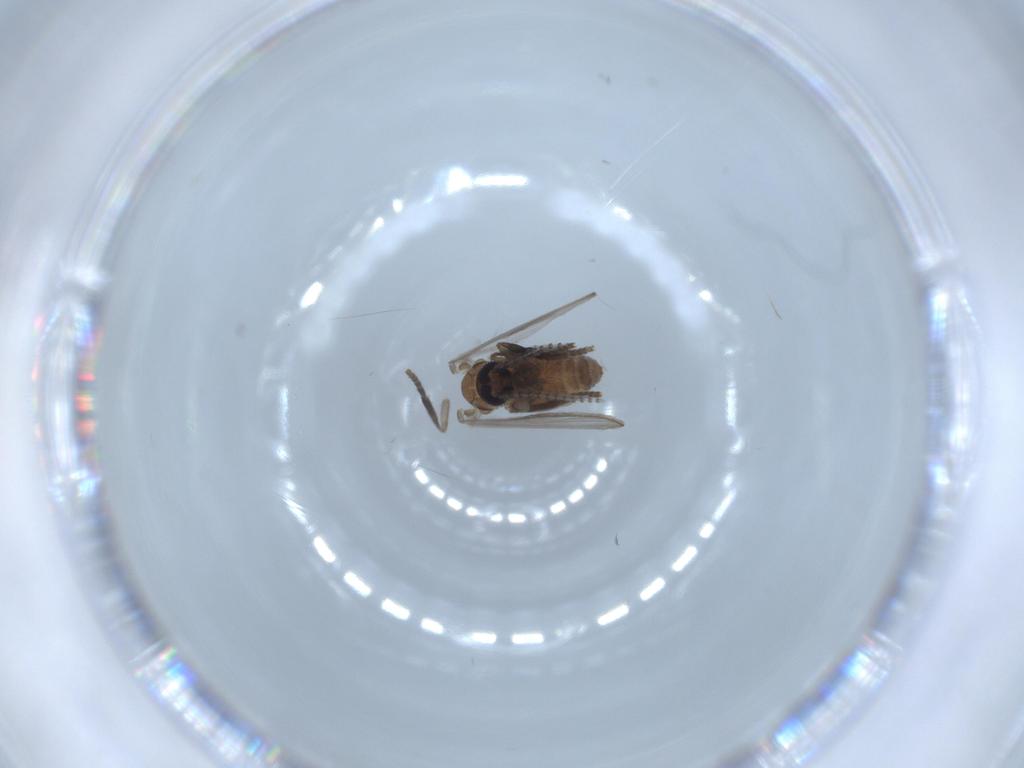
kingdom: Animalia
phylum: Arthropoda
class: Insecta
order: Diptera
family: Psychodidae
